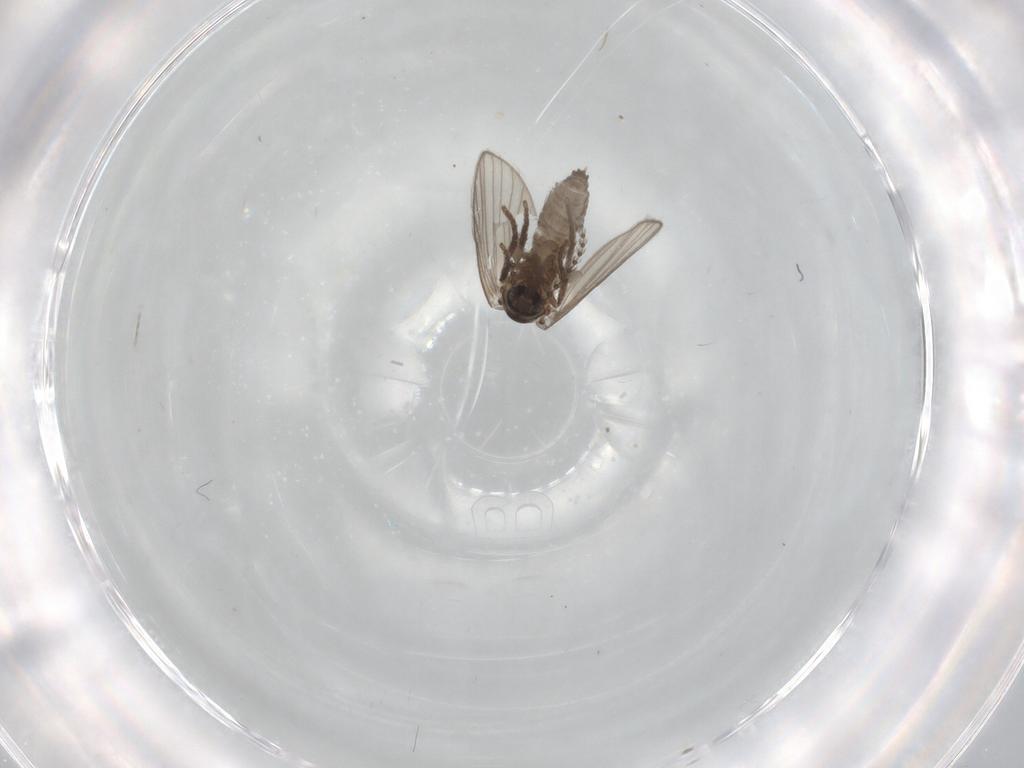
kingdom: Animalia
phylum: Arthropoda
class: Insecta
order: Diptera
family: Psychodidae
